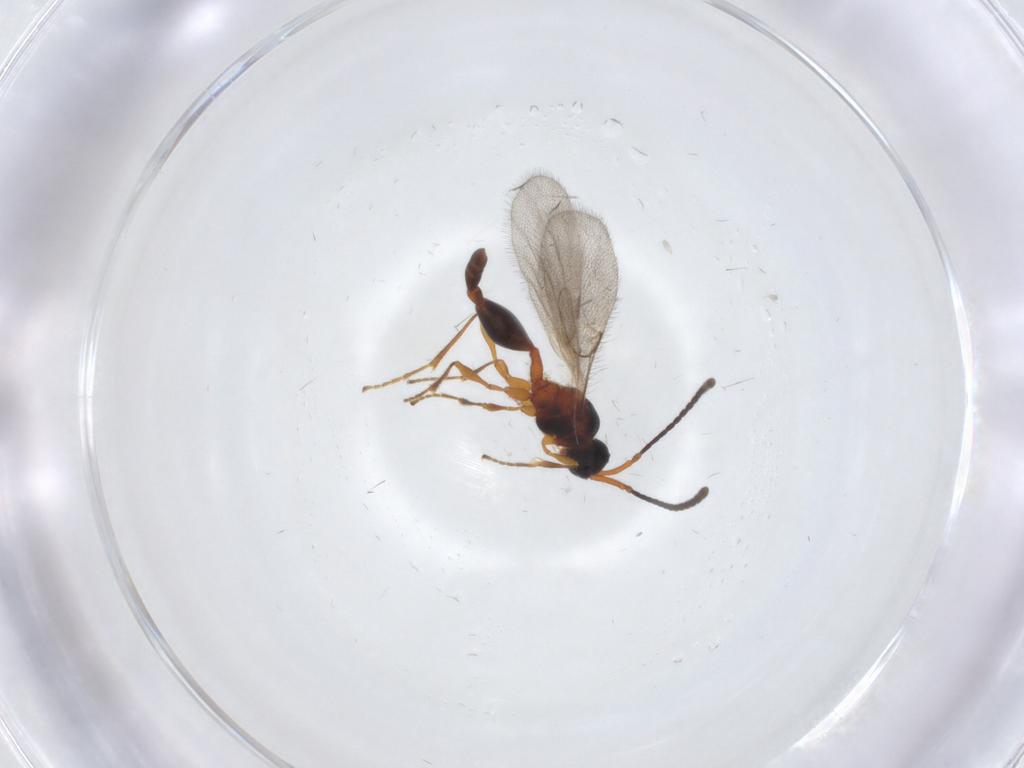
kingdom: Animalia
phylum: Arthropoda
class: Insecta
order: Hymenoptera
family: Diapriidae
